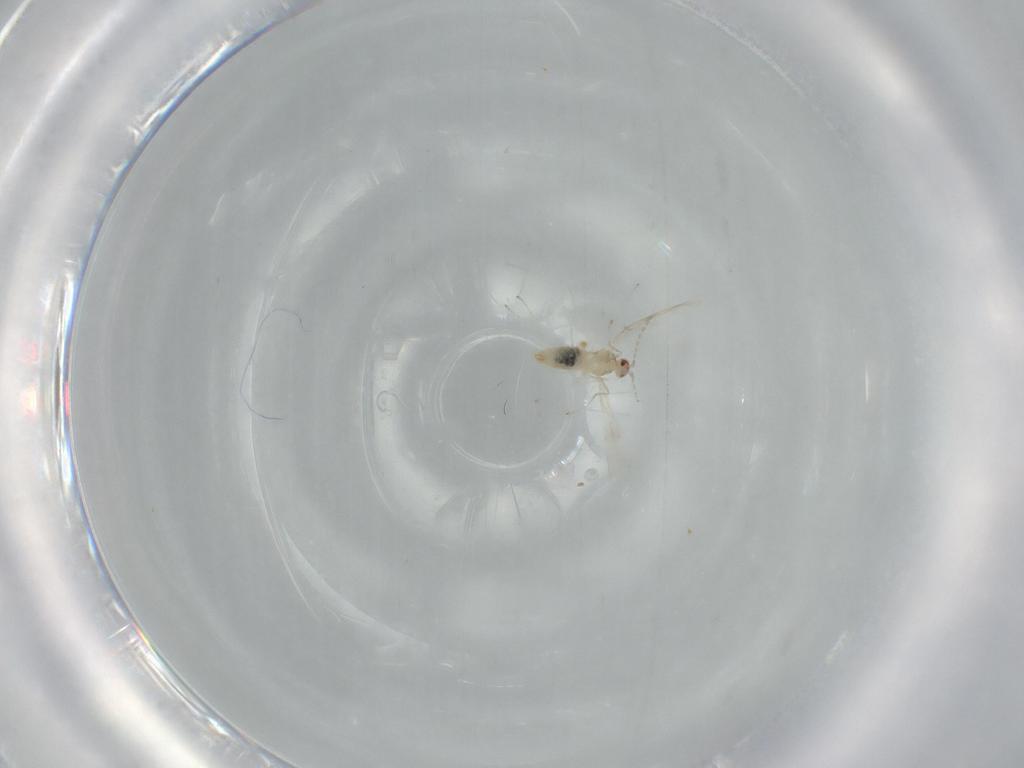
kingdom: Animalia
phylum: Arthropoda
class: Insecta
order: Diptera
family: Cecidomyiidae
